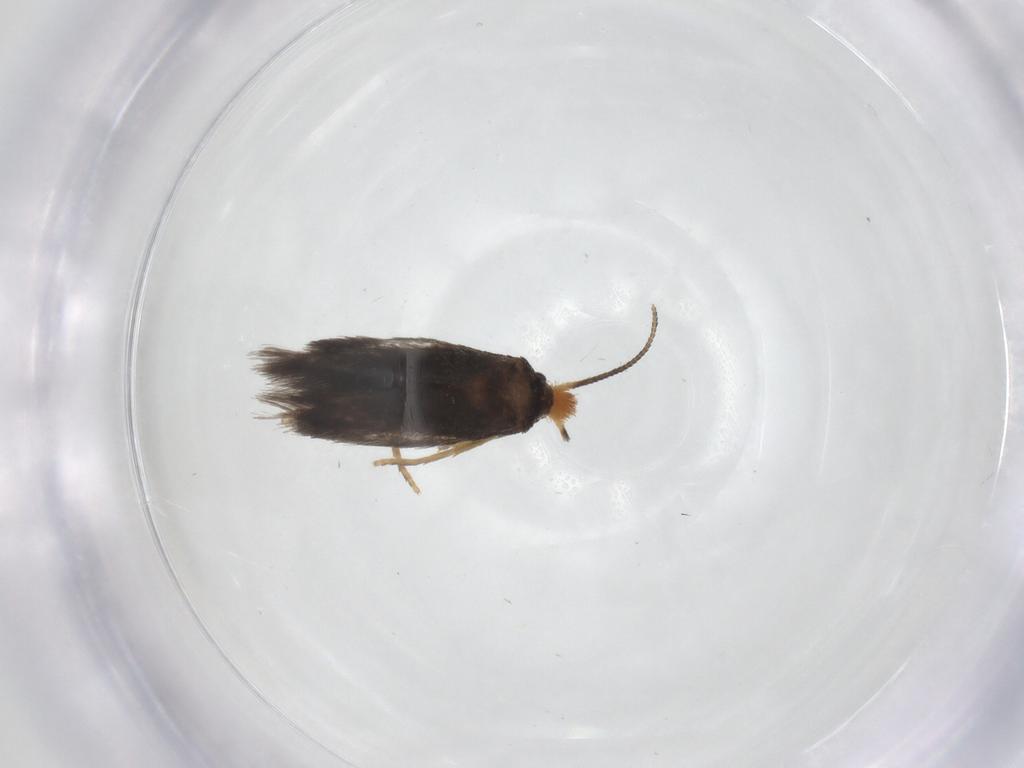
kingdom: Animalia
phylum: Arthropoda
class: Insecta
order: Lepidoptera
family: Nepticulidae
